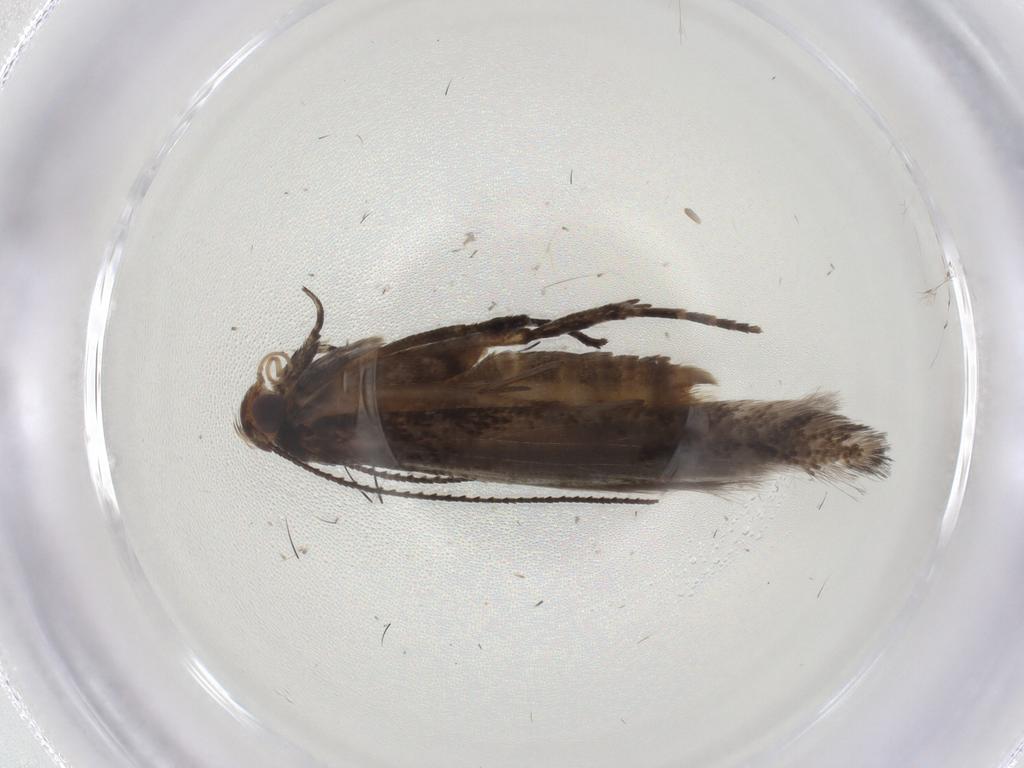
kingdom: Animalia
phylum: Arthropoda
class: Insecta
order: Lepidoptera
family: Gelechiidae
